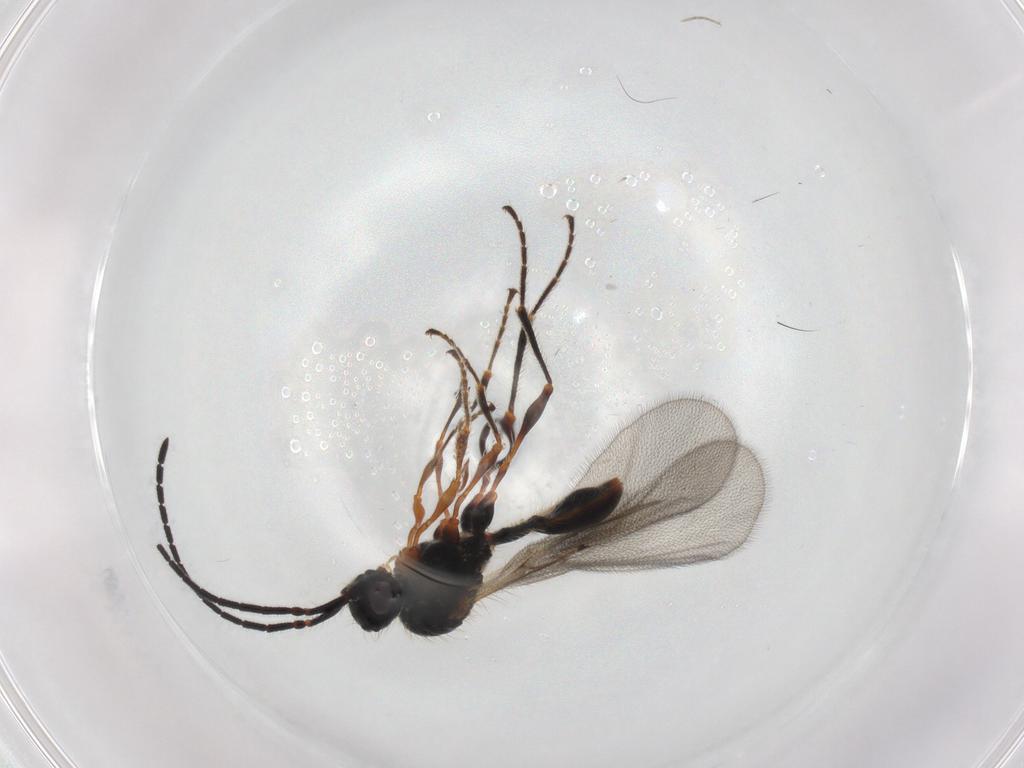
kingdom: Animalia
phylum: Arthropoda
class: Insecta
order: Hymenoptera
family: Diapriidae
